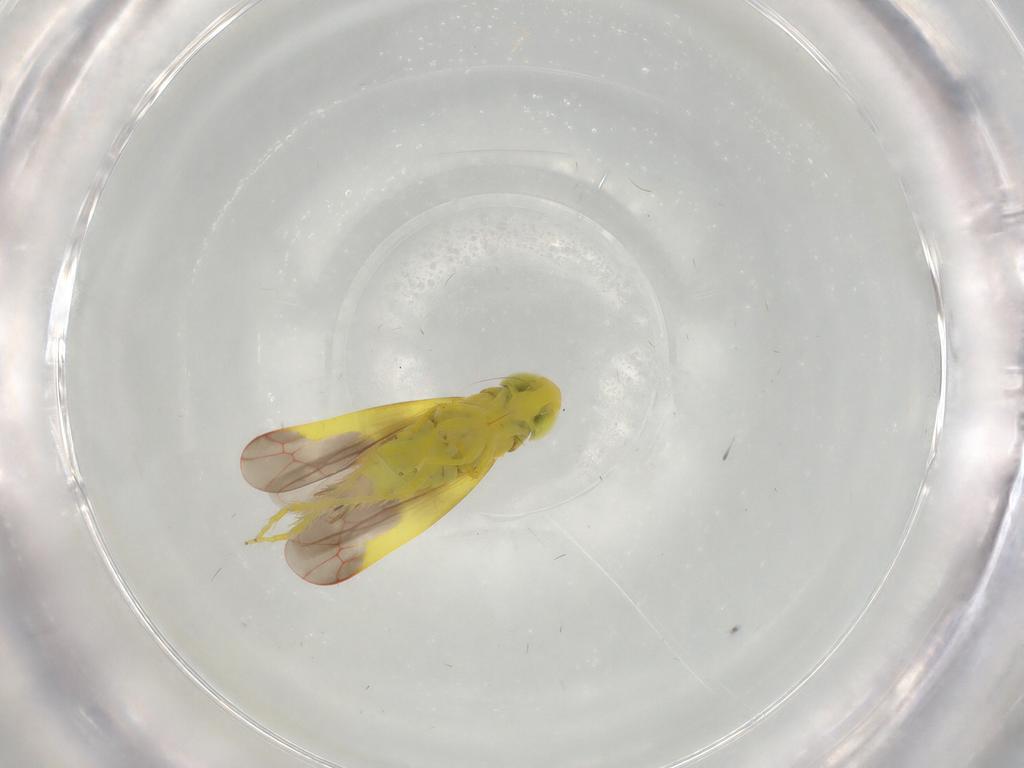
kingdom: Animalia
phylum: Arthropoda
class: Insecta
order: Hemiptera
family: Cicadellidae
